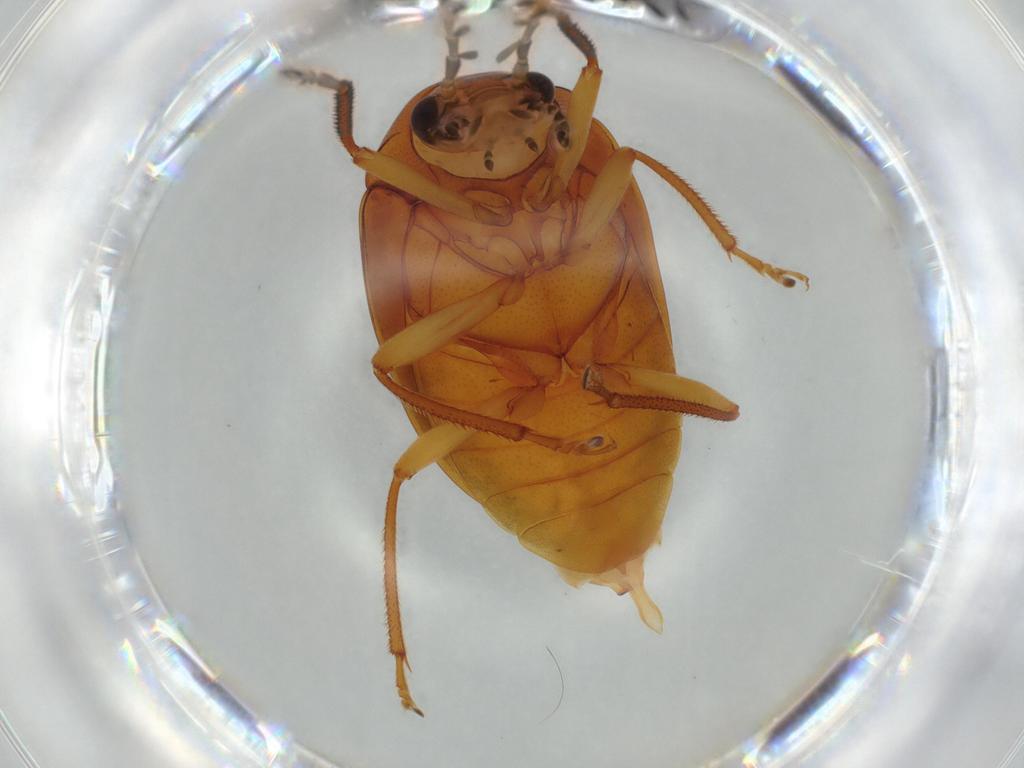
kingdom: Animalia
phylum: Arthropoda
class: Insecta
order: Coleoptera
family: Ptilodactylidae
